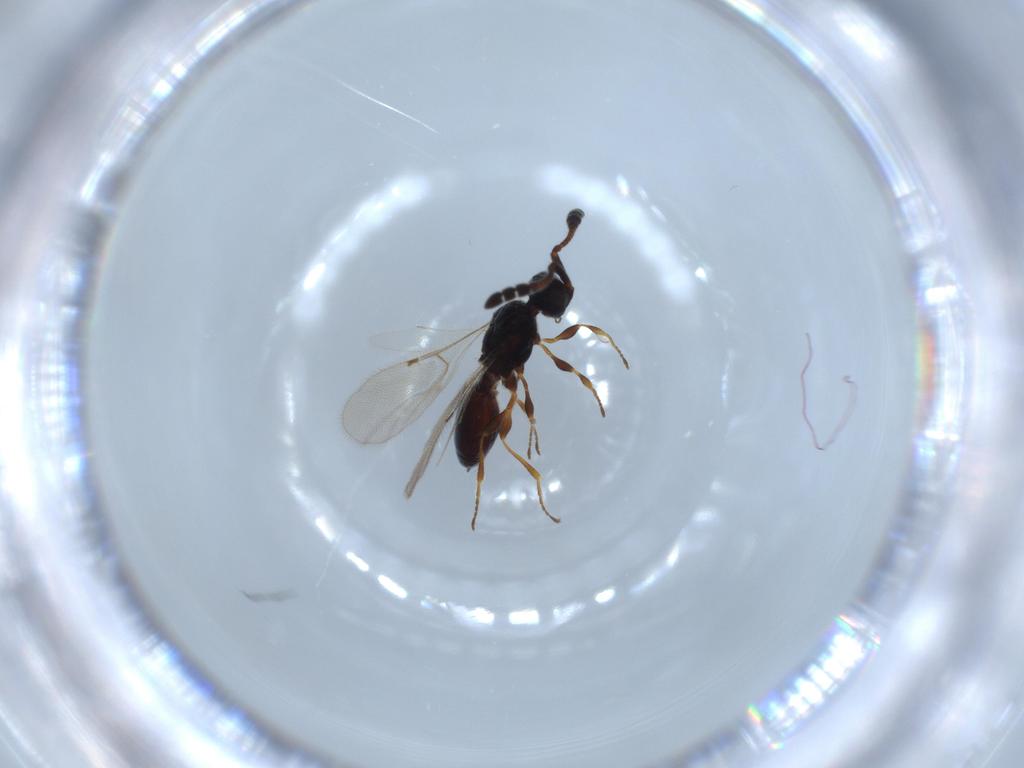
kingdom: Animalia
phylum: Arthropoda
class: Insecta
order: Hymenoptera
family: Diapriidae
